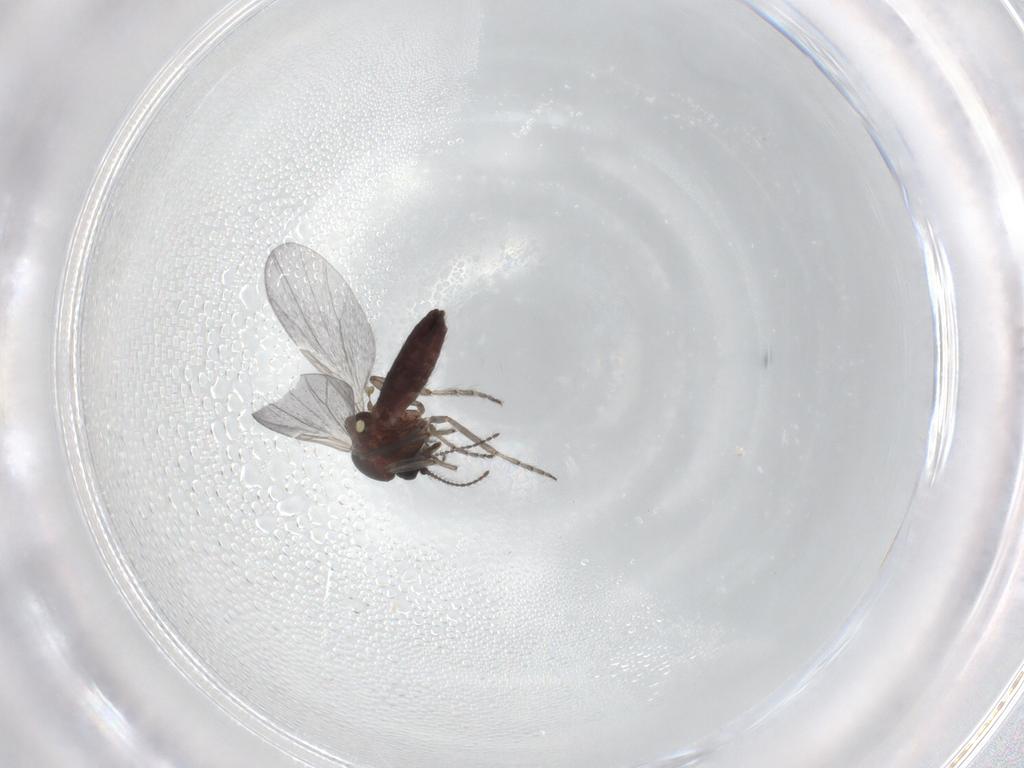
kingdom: Animalia
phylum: Arthropoda
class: Insecta
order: Diptera
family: Ceratopogonidae
